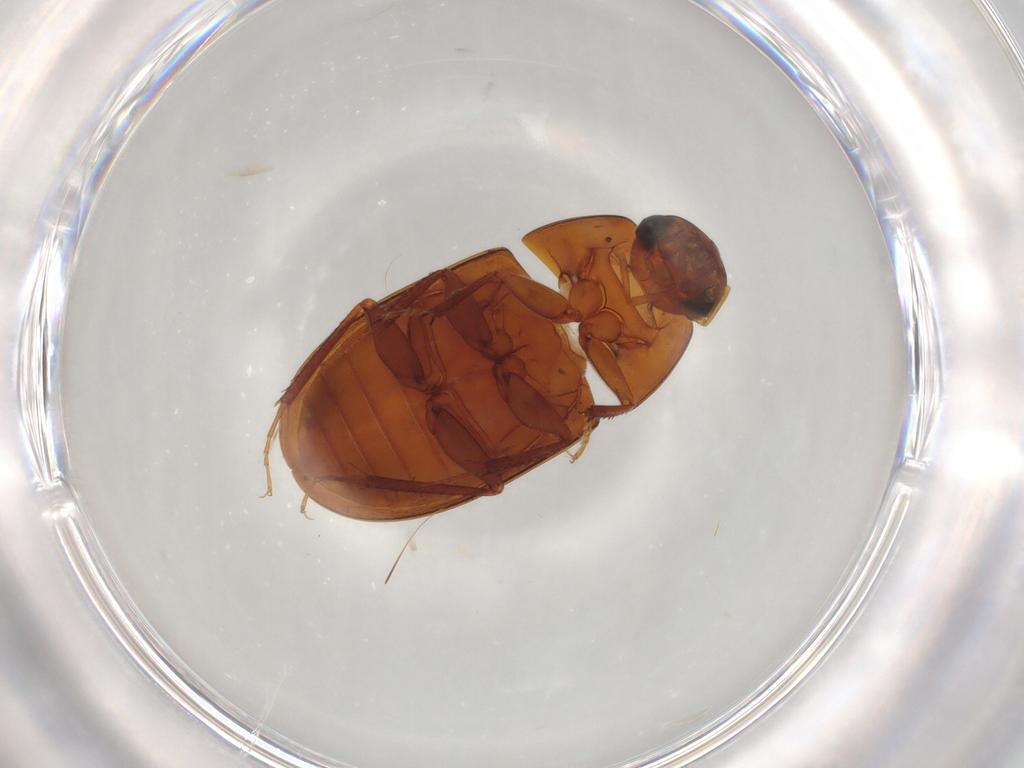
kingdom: Animalia
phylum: Arthropoda
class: Insecta
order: Coleoptera
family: Hydrophilidae
